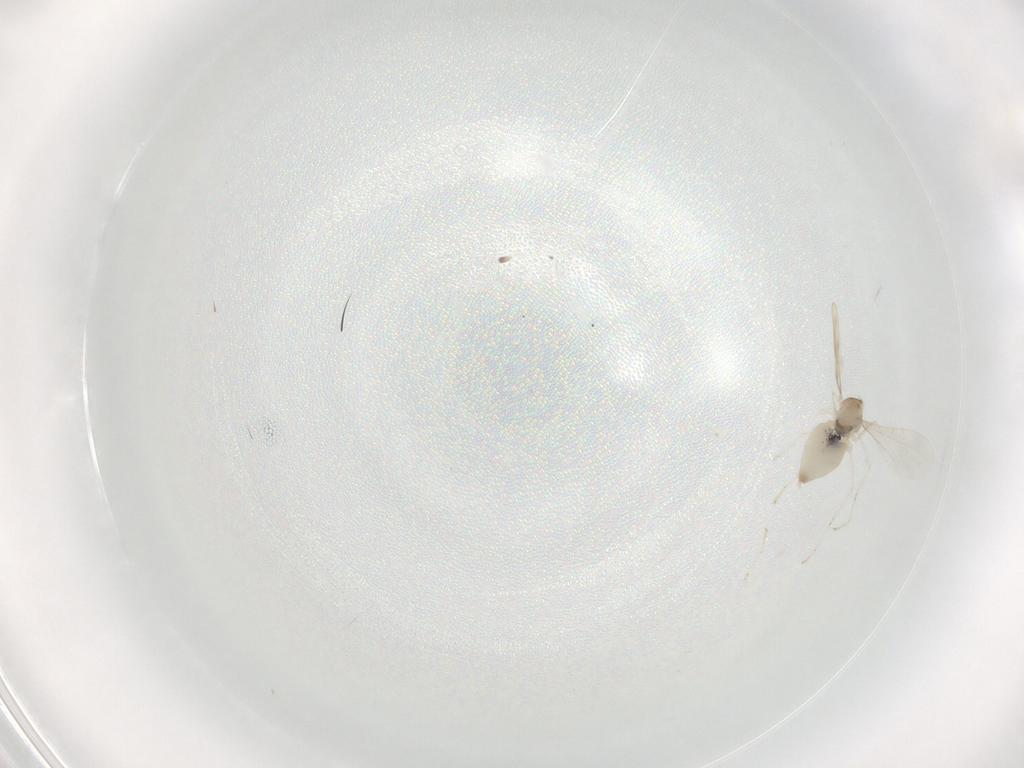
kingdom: Animalia
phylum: Arthropoda
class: Insecta
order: Diptera
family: Cecidomyiidae
